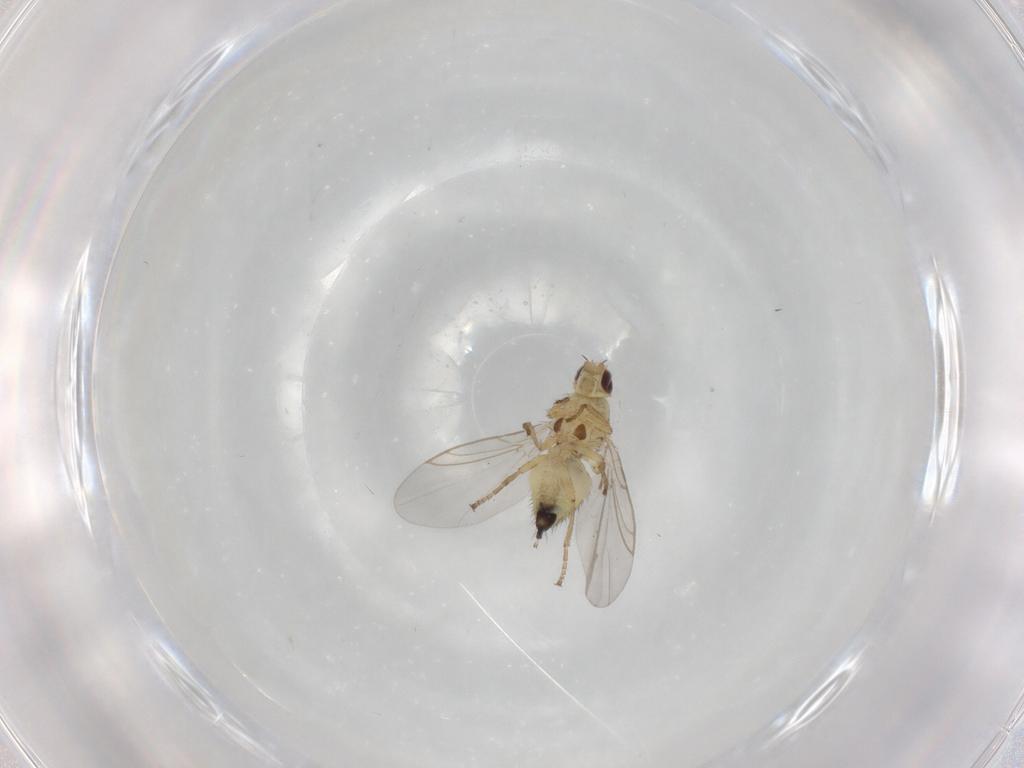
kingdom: Animalia
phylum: Arthropoda
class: Insecta
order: Diptera
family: Agromyzidae
